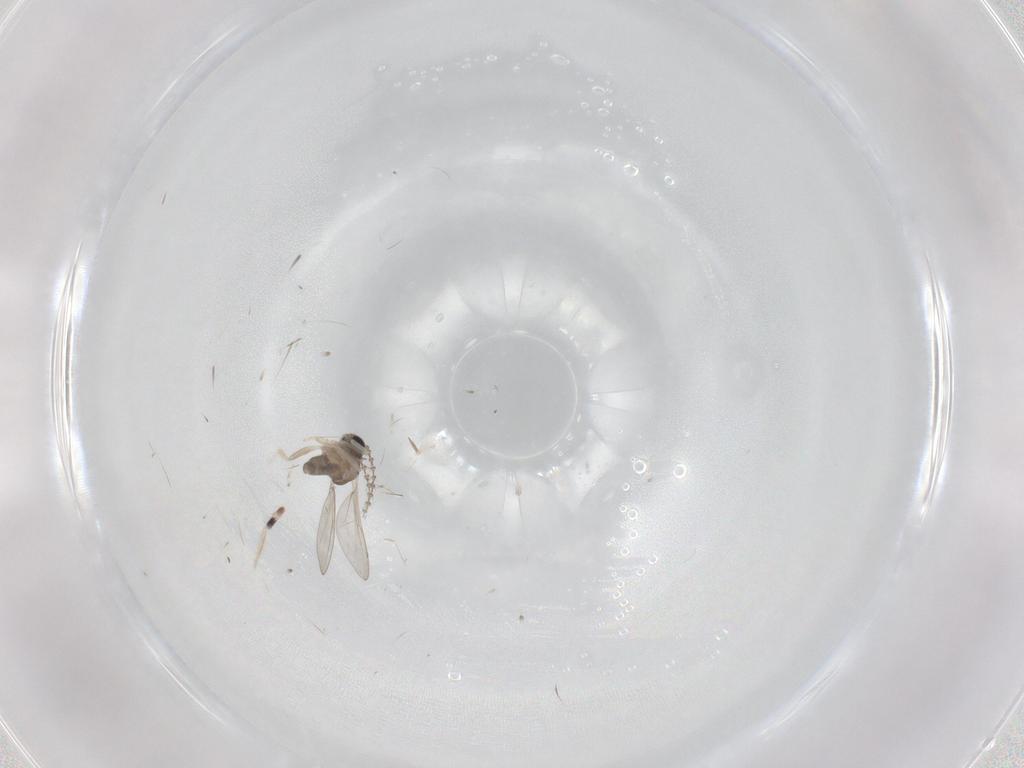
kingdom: Animalia
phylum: Arthropoda
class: Insecta
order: Diptera
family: Cecidomyiidae
